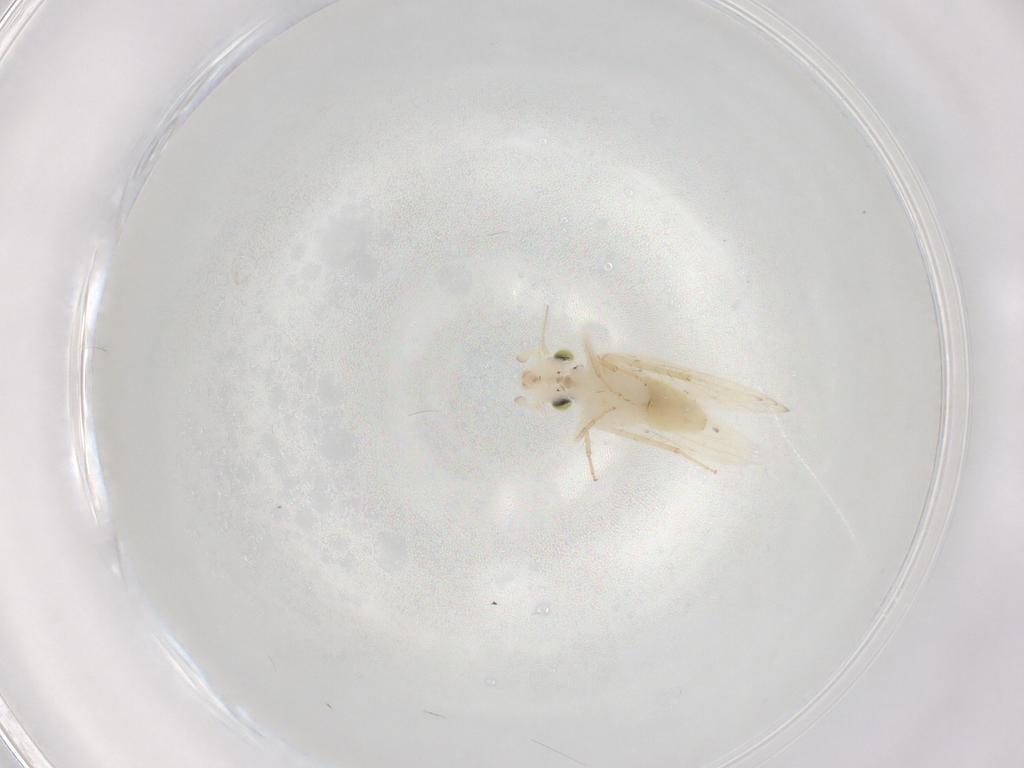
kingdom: Animalia
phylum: Arthropoda
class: Insecta
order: Psocodea
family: Lepidopsocidae
